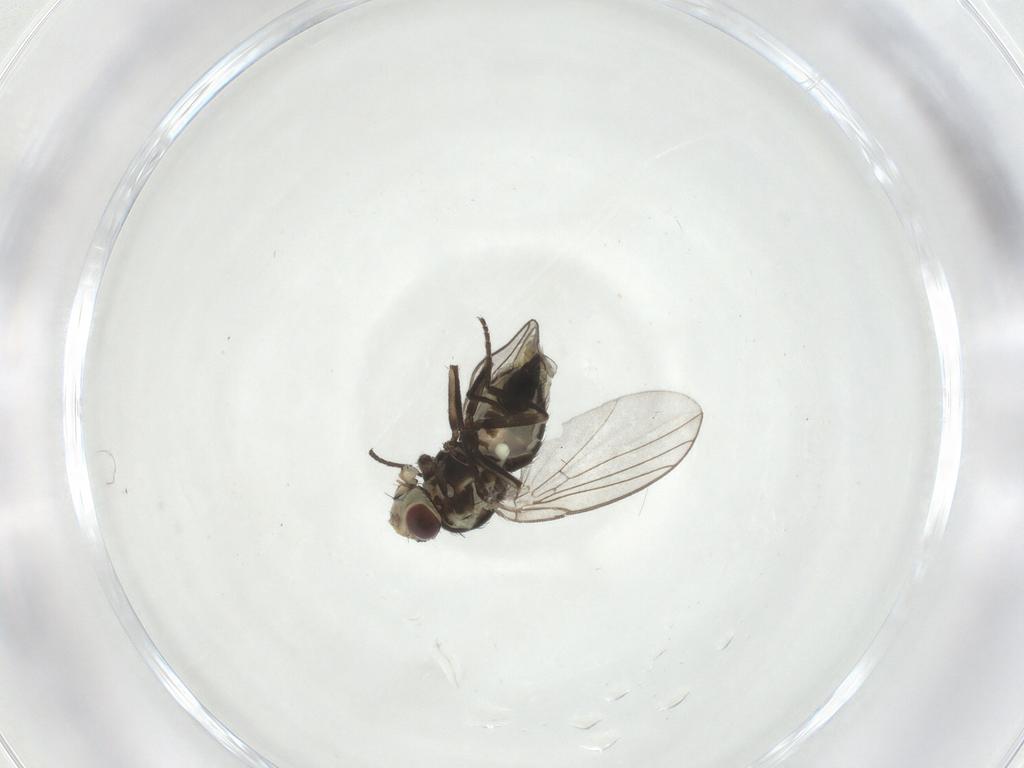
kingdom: Animalia
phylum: Arthropoda
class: Insecta
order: Diptera
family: Agromyzidae
